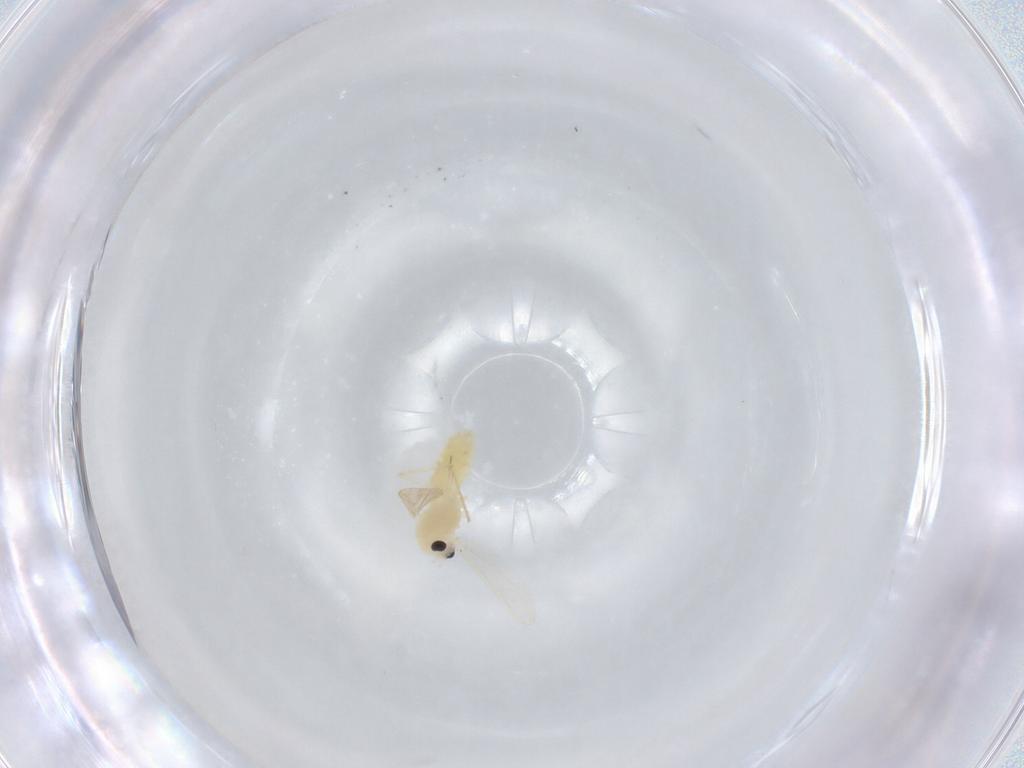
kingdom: Animalia
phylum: Arthropoda
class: Insecta
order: Diptera
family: Chironomidae
